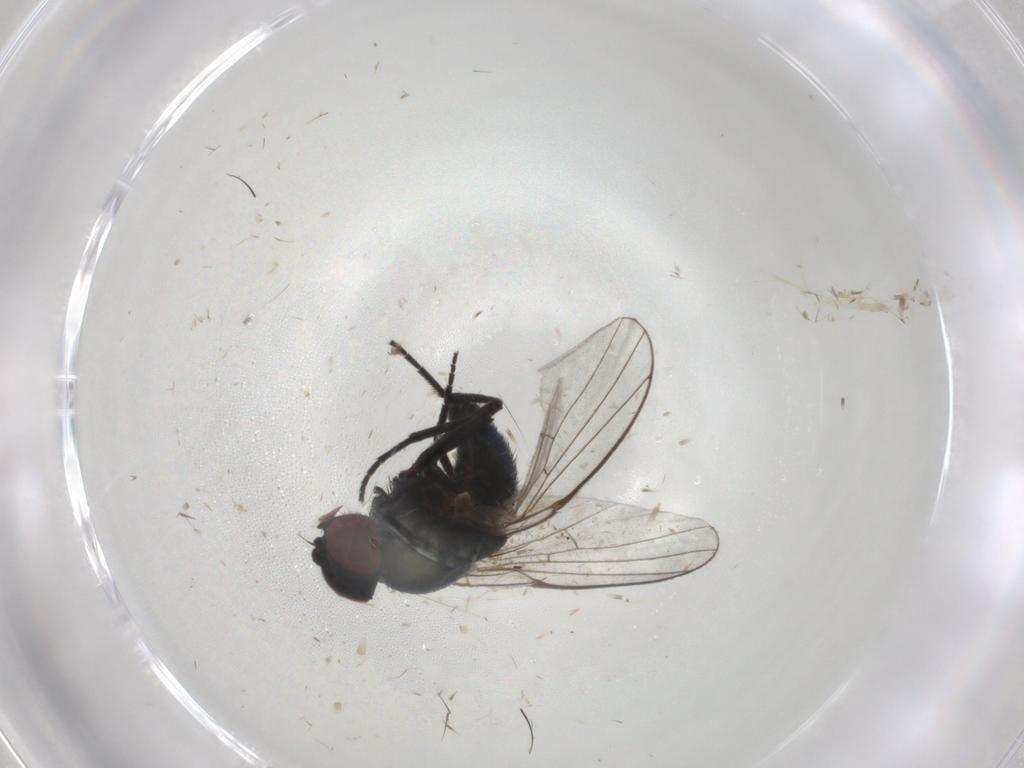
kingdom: Animalia
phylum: Arthropoda
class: Insecta
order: Diptera
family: Agromyzidae
